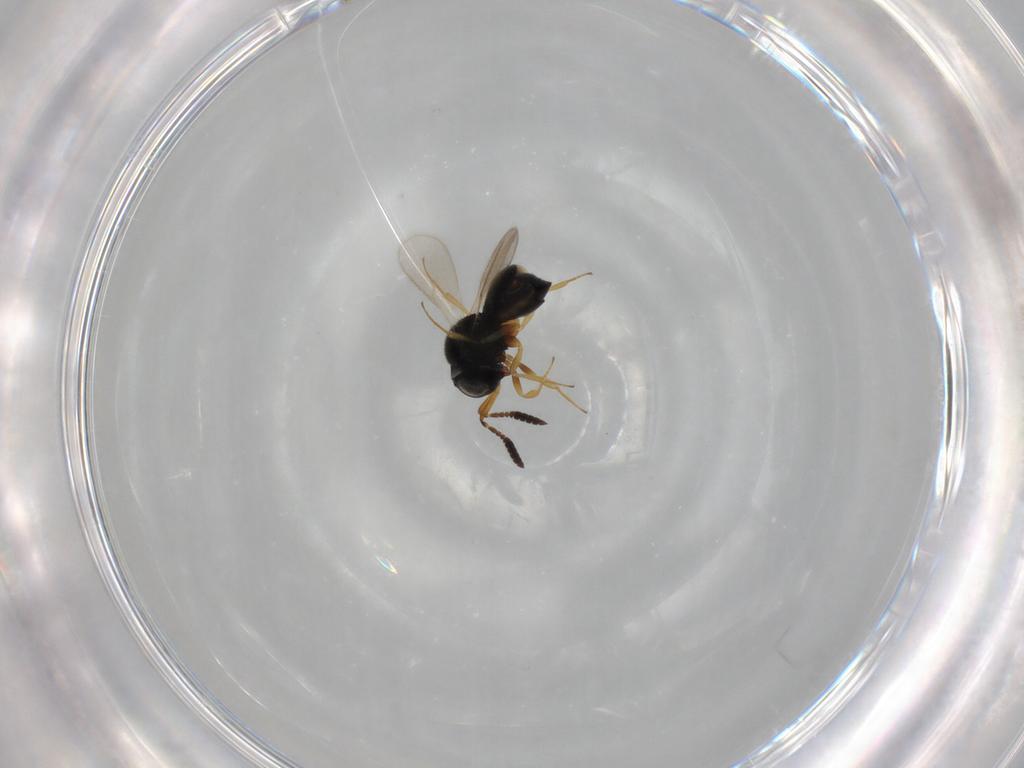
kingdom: Animalia
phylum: Arthropoda
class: Insecta
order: Hymenoptera
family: Scelionidae
